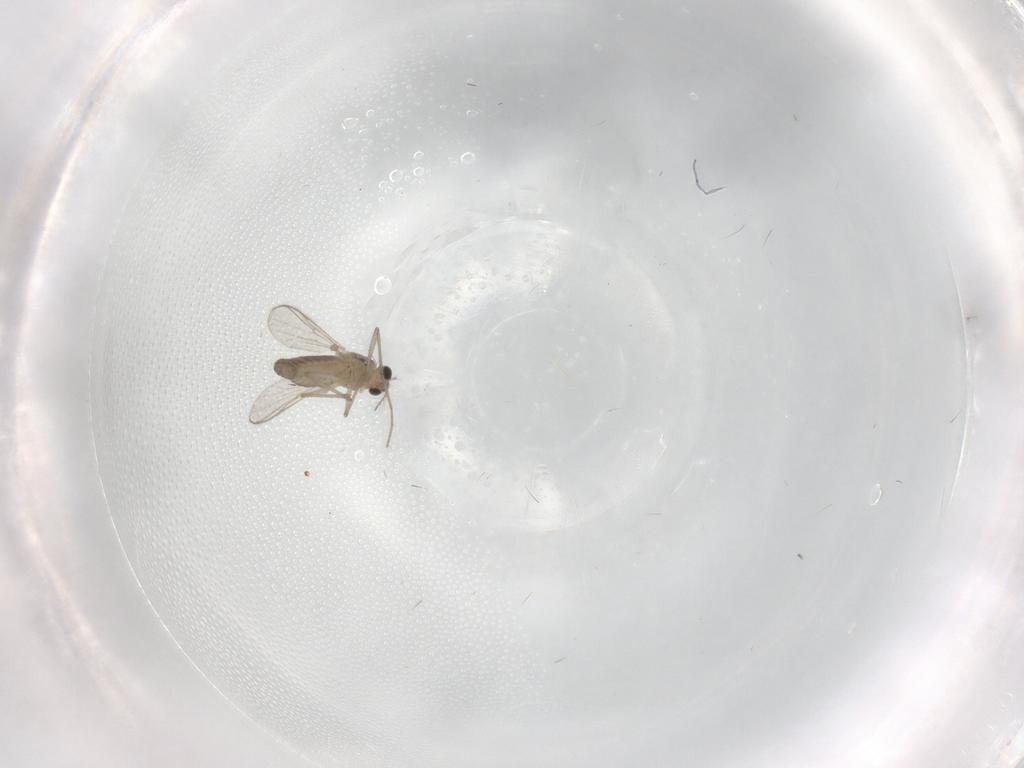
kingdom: Animalia
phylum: Arthropoda
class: Insecta
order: Diptera
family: Chironomidae
